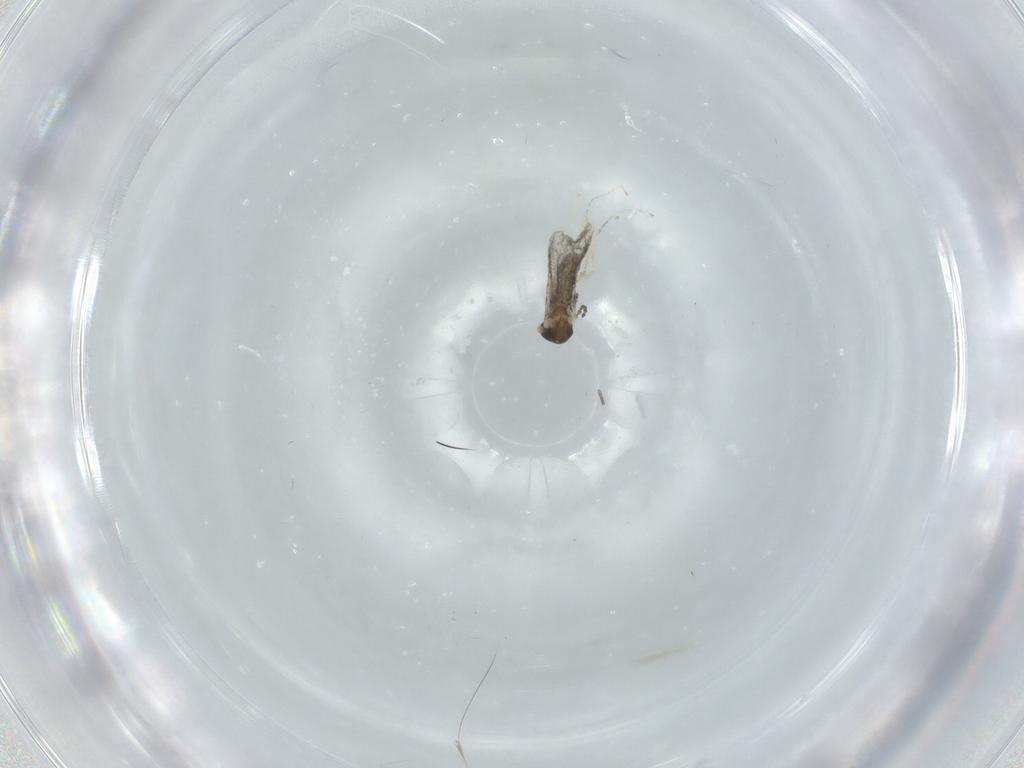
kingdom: Animalia
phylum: Arthropoda
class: Insecta
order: Diptera
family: Cecidomyiidae
